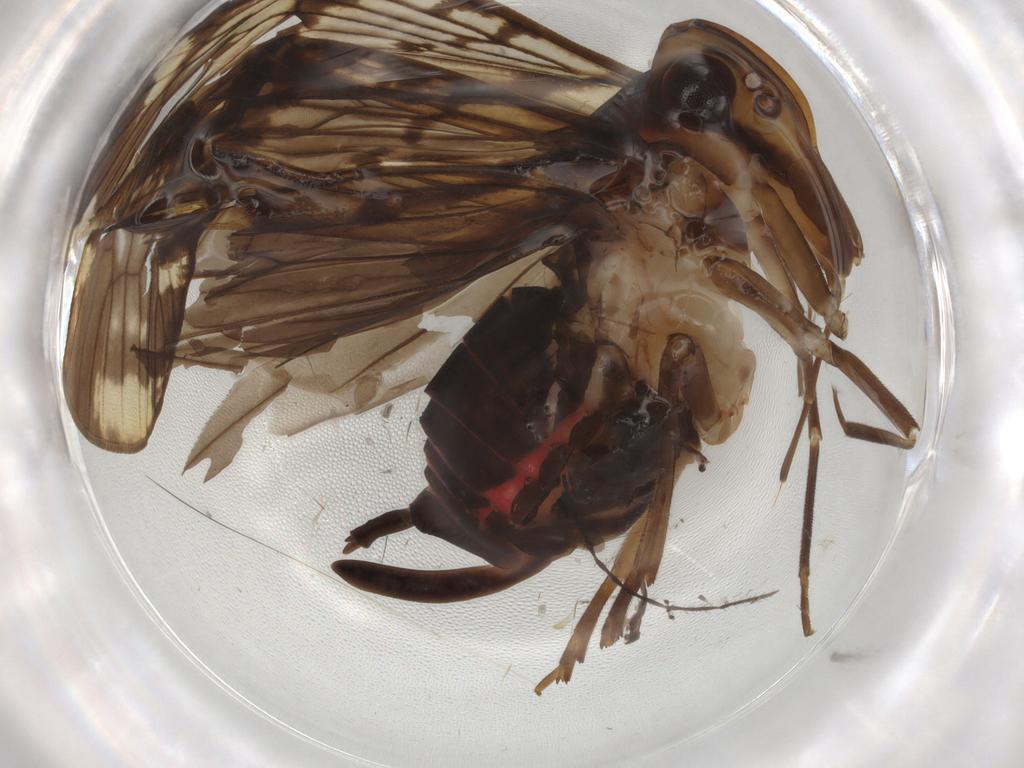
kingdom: Animalia
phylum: Arthropoda
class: Insecta
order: Hemiptera
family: Cixiidae
